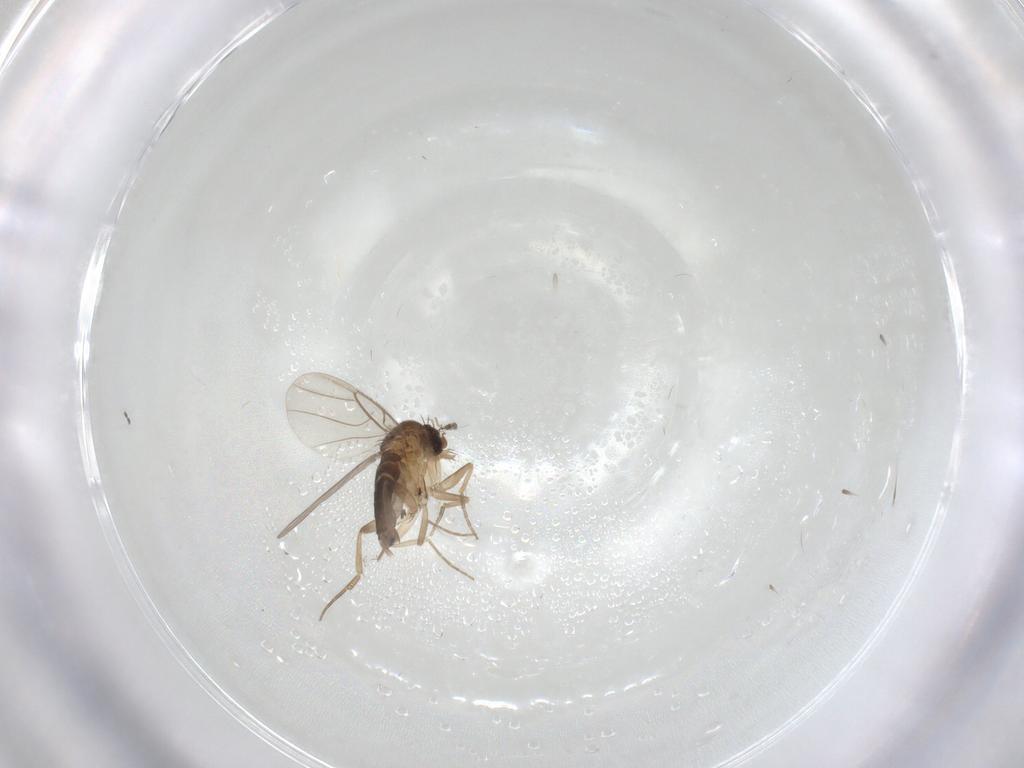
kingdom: Animalia
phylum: Arthropoda
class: Insecta
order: Diptera
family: Phoridae
